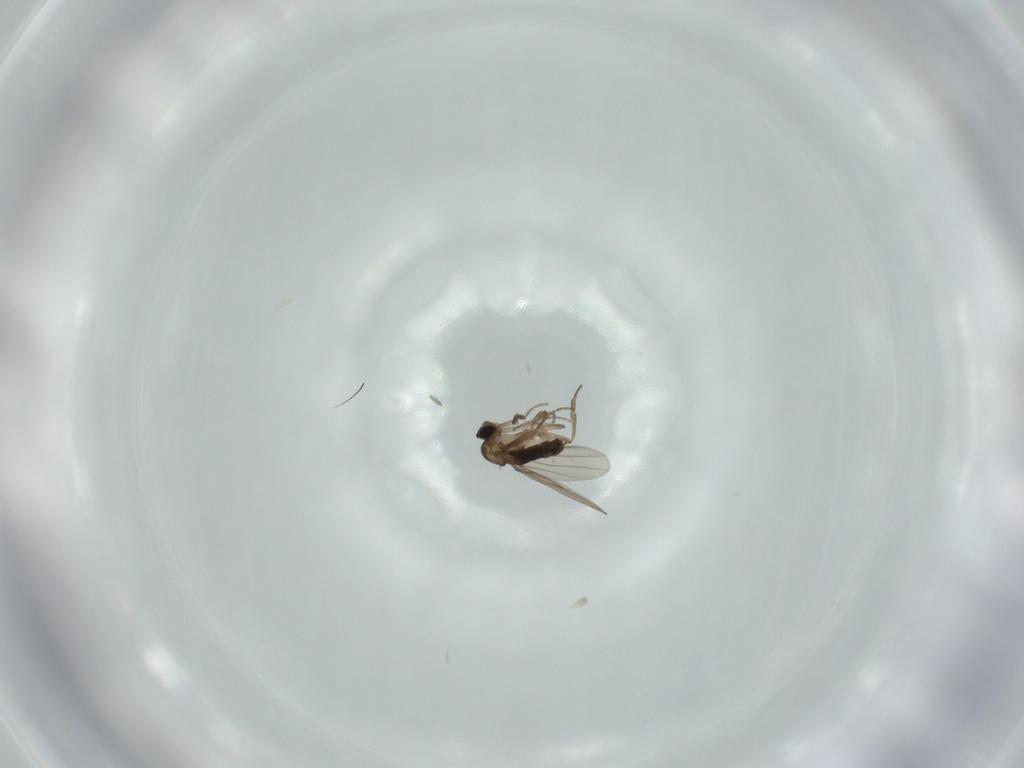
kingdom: Animalia
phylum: Arthropoda
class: Insecta
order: Diptera
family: Phoridae
